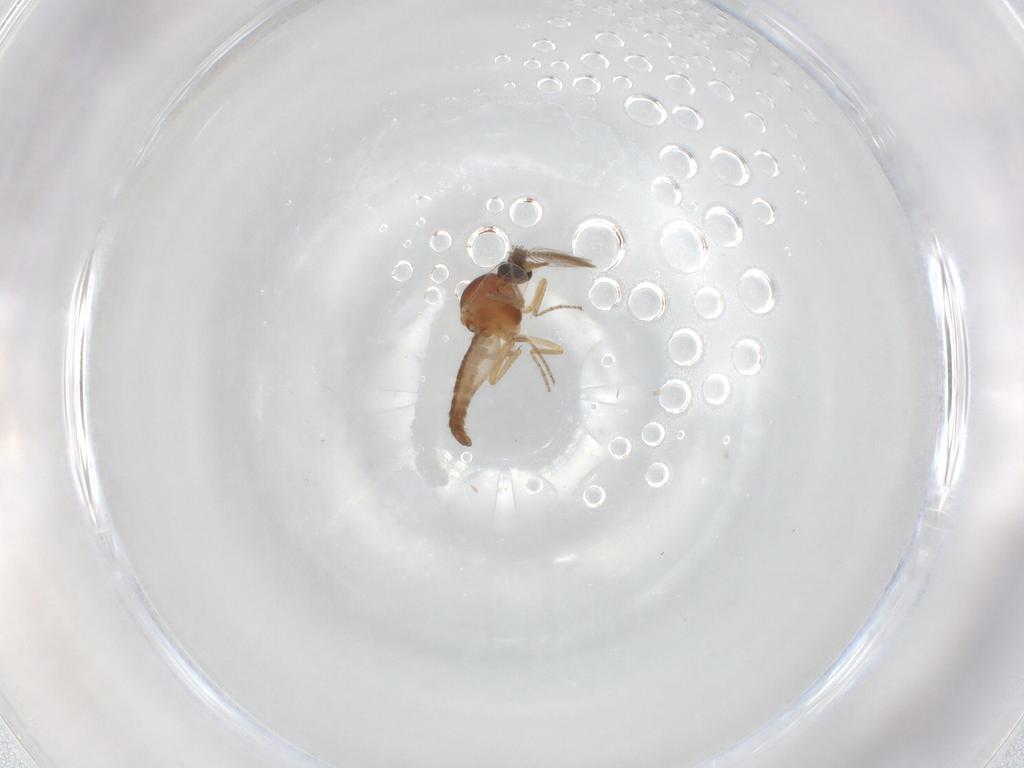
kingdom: Animalia
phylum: Arthropoda
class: Insecta
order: Diptera
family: Ceratopogonidae
